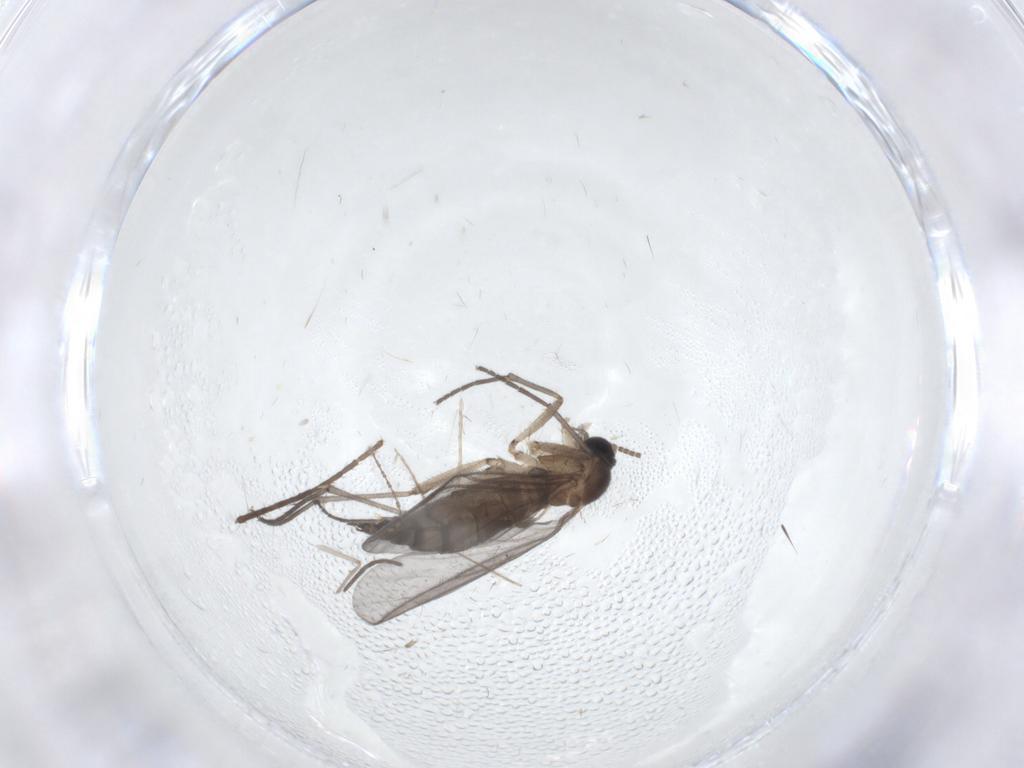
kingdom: Animalia
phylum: Arthropoda
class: Insecta
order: Diptera
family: Chironomidae
